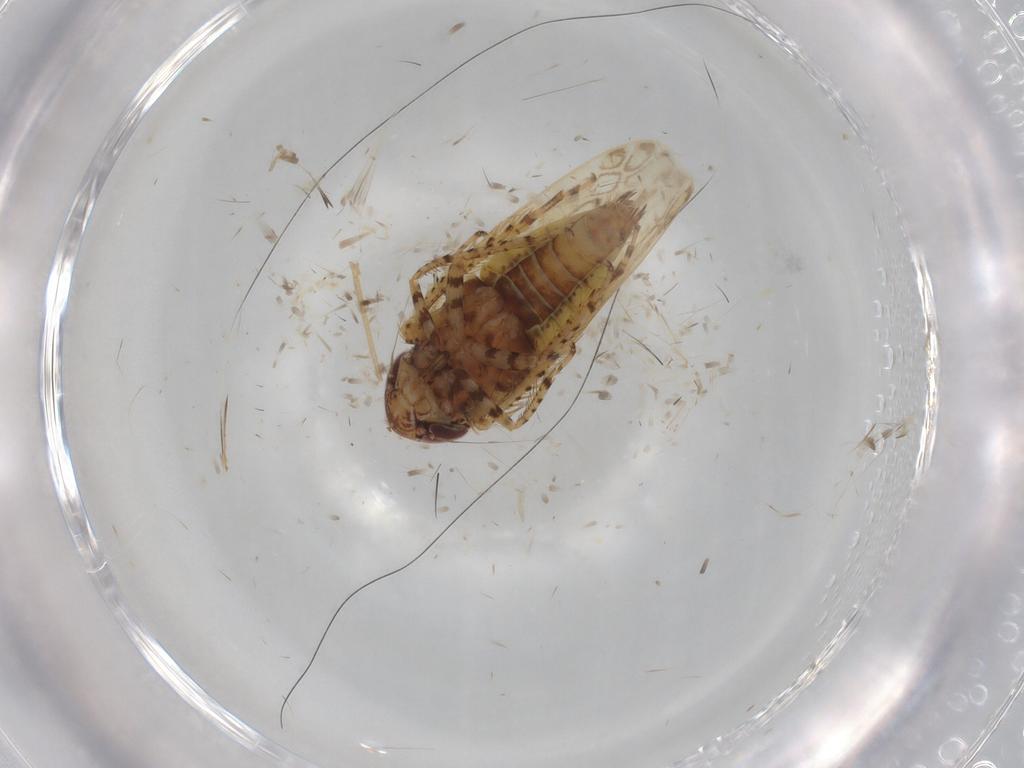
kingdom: Animalia
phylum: Arthropoda
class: Insecta
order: Hemiptera
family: Cicadellidae
